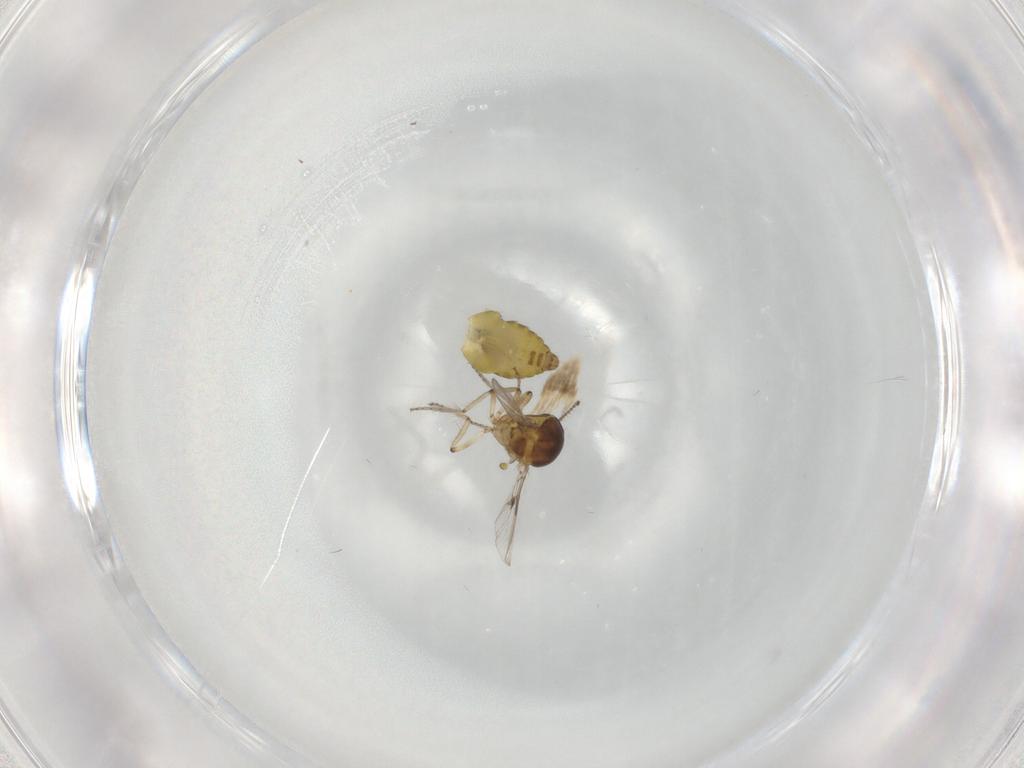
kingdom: Animalia
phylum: Arthropoda
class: Insecta
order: Diptera
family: Ceratopogonidae
